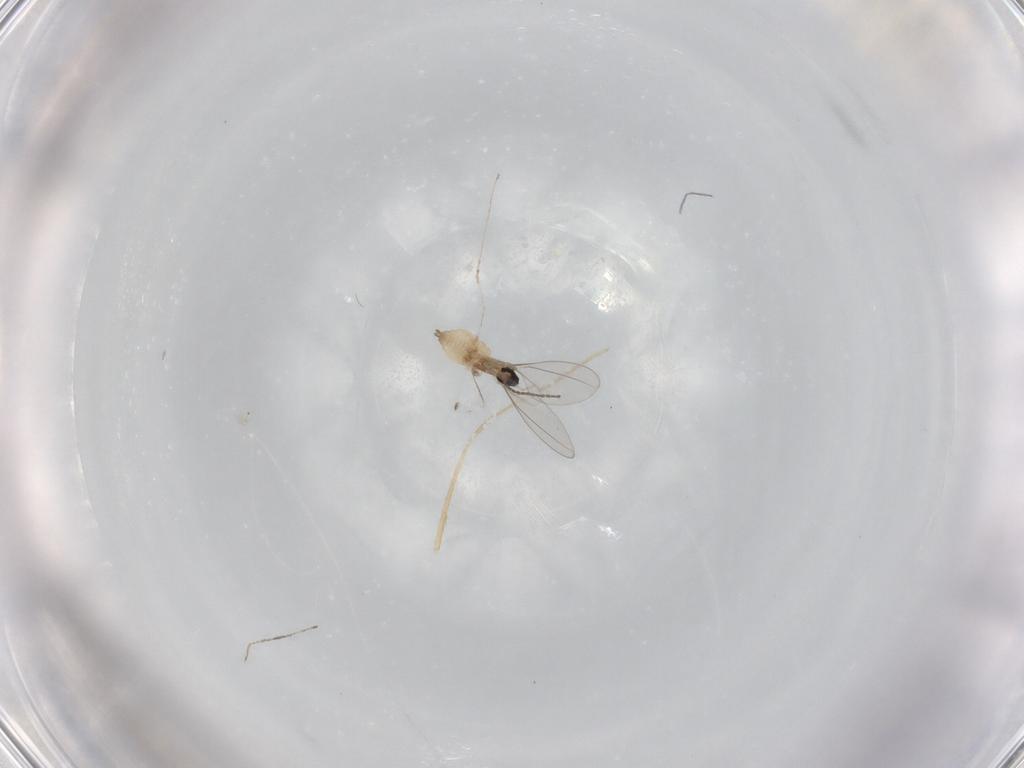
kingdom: Animalia
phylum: Arthropoda
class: Insecta
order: Diptera
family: Cecidomyiidae
